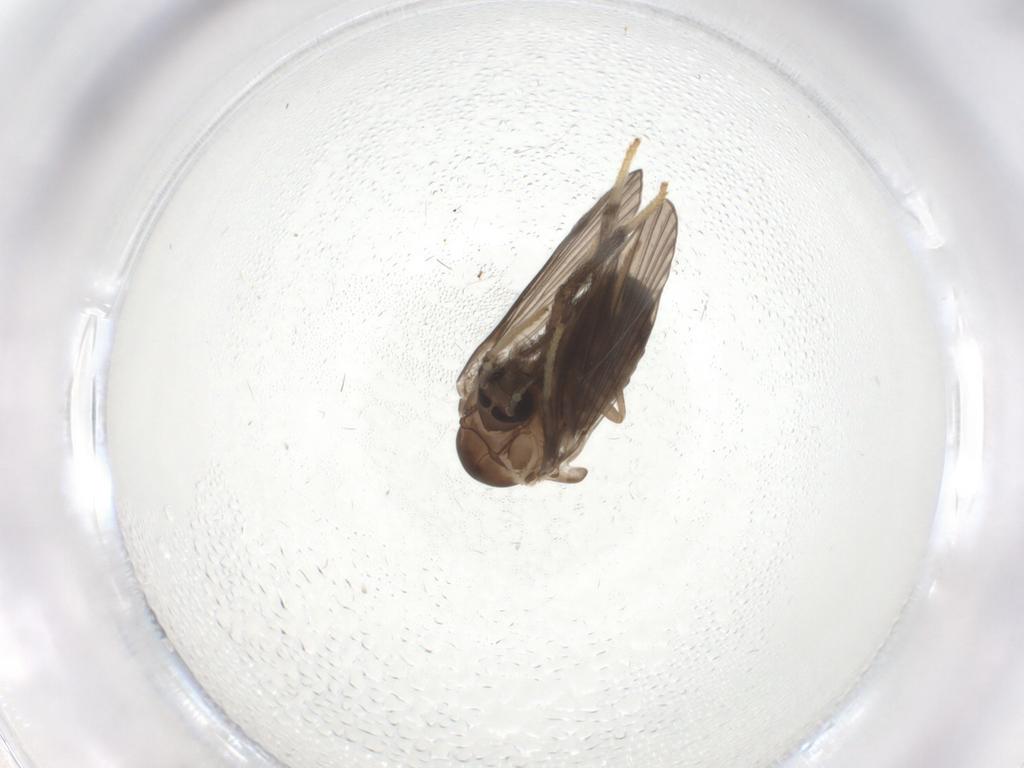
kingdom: Animalia
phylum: Arthropoda
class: Insecta
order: Diptera
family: Psychodidae
